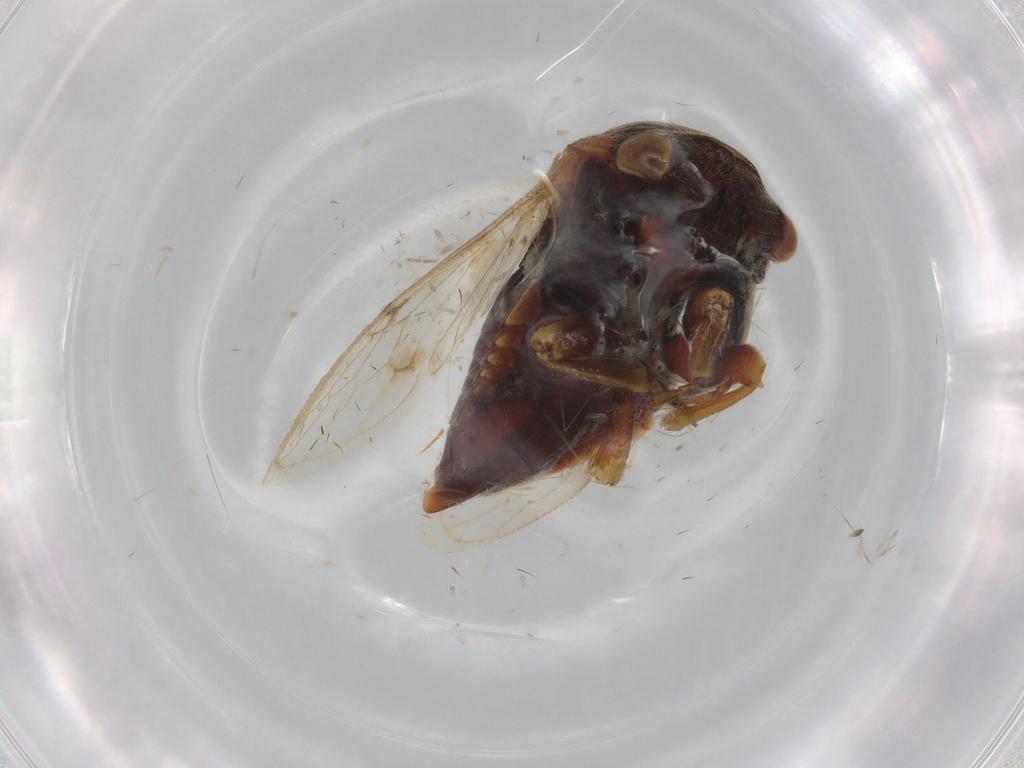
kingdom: Animalia
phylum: Arthropoda
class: Insecta
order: Hemiptera
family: Membracidae
